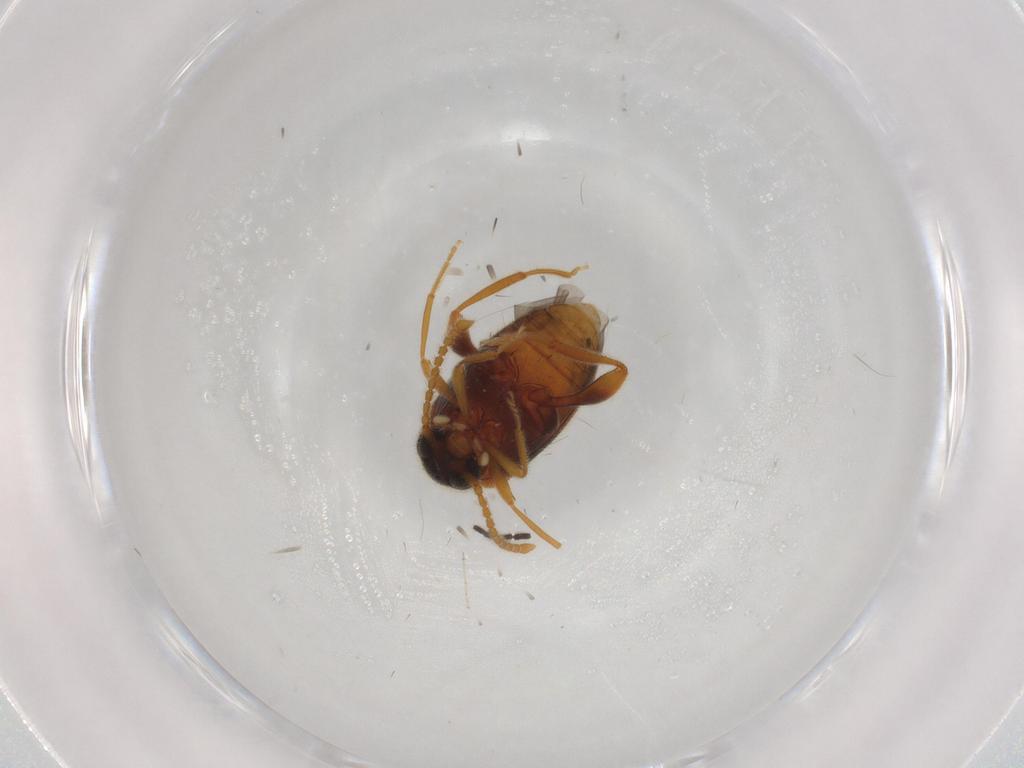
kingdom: Animalia
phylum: Arthropoda
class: Insecta
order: Coleoptera
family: Aderidae
